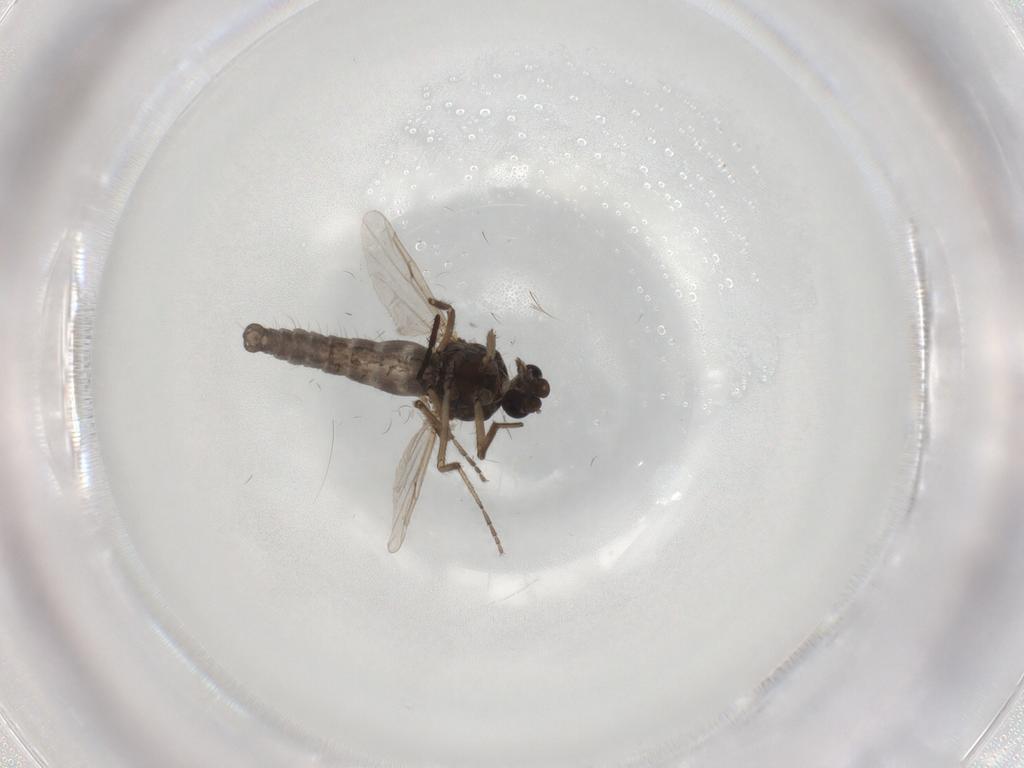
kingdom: Animalia
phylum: Arthropoda
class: Insecta
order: Diptera
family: Ceratopogonidae
